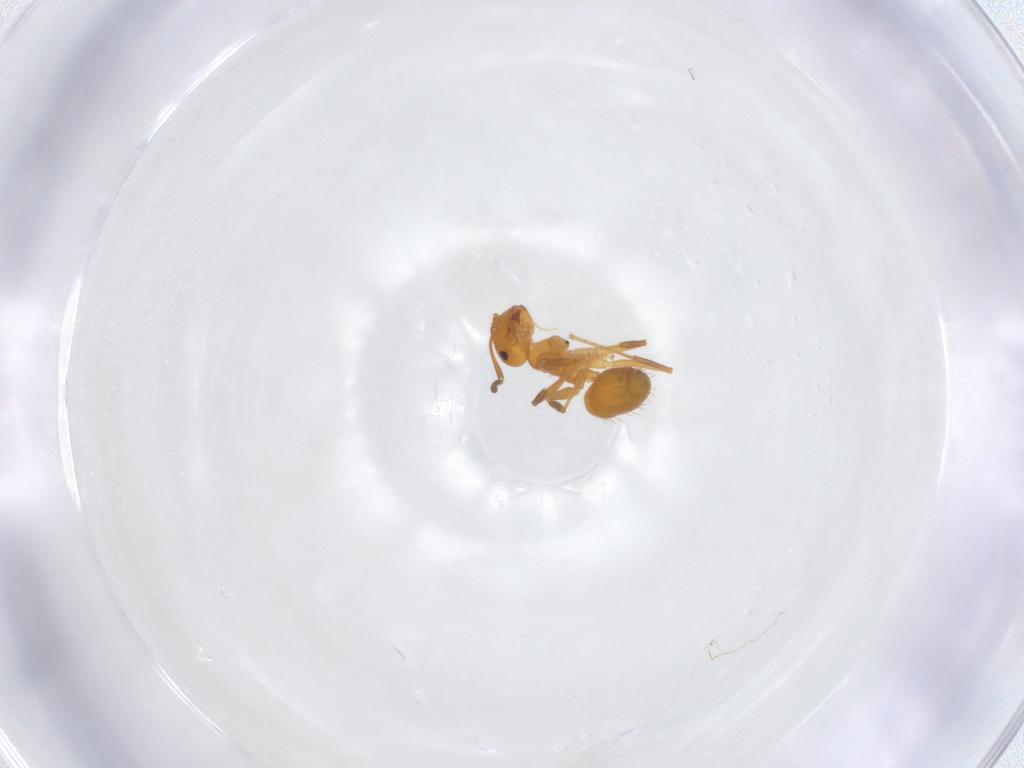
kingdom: Animalia
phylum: Arthropoda
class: Insecta
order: Hymenoptera
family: Formicidae
